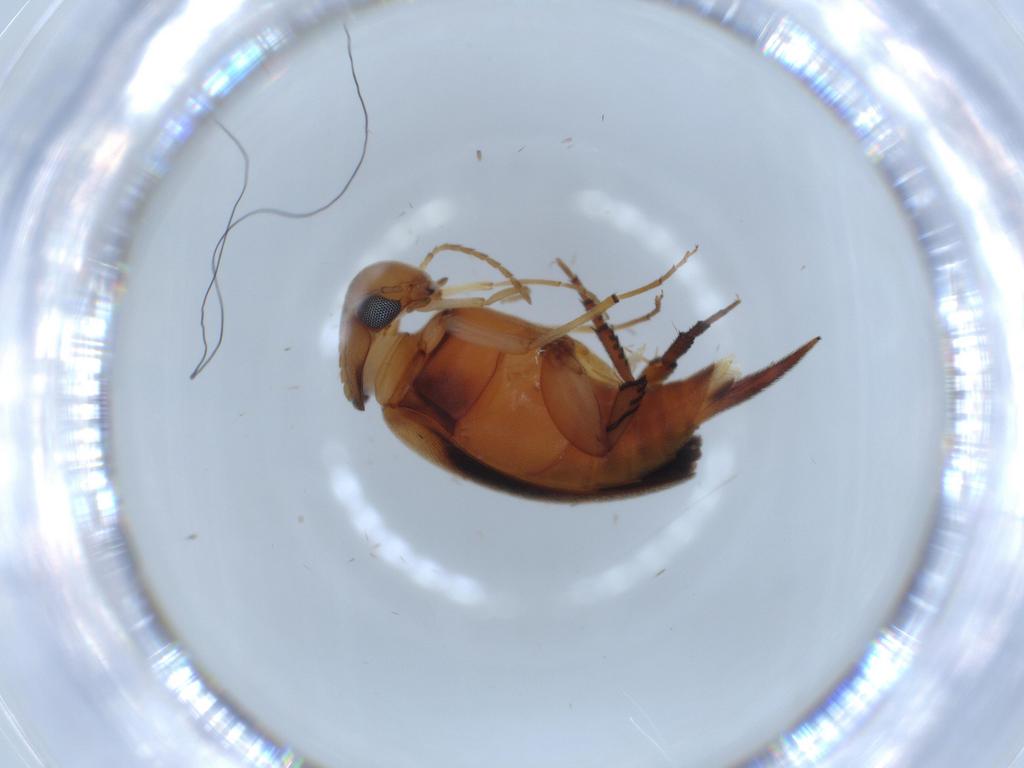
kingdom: Animalia
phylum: Arthropoda
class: Insecta
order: Coleoptera
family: Mordellidae
